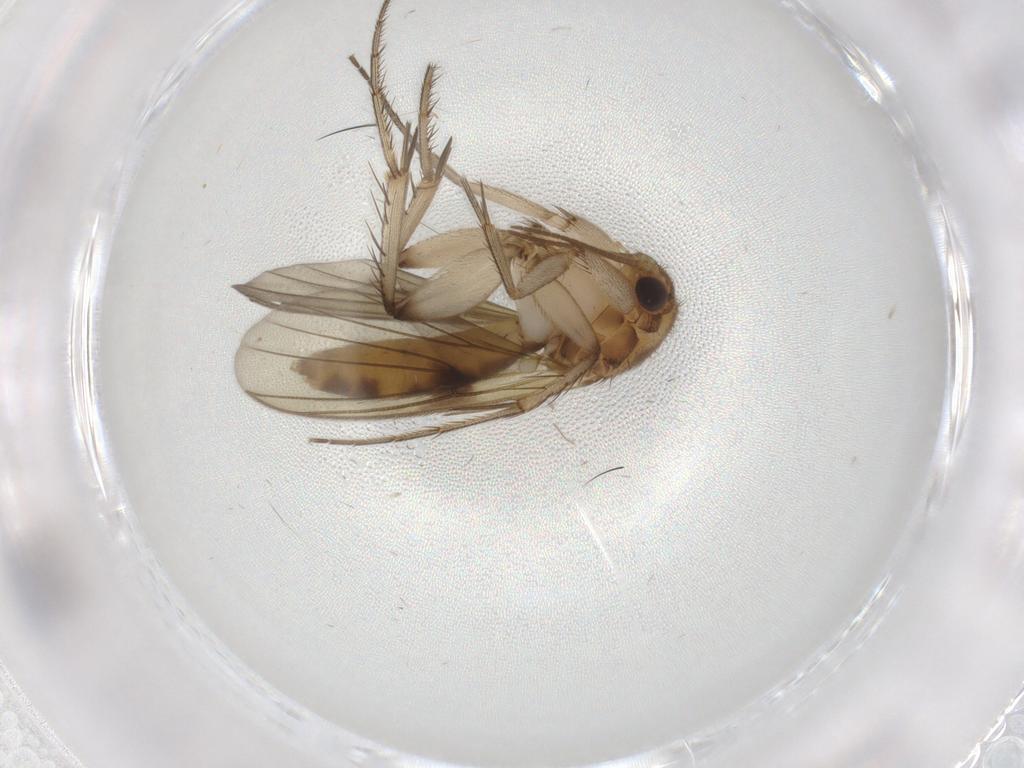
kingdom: Animalia
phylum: Arthropoda
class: Insecta
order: Diptera
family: Mycetophilidae
